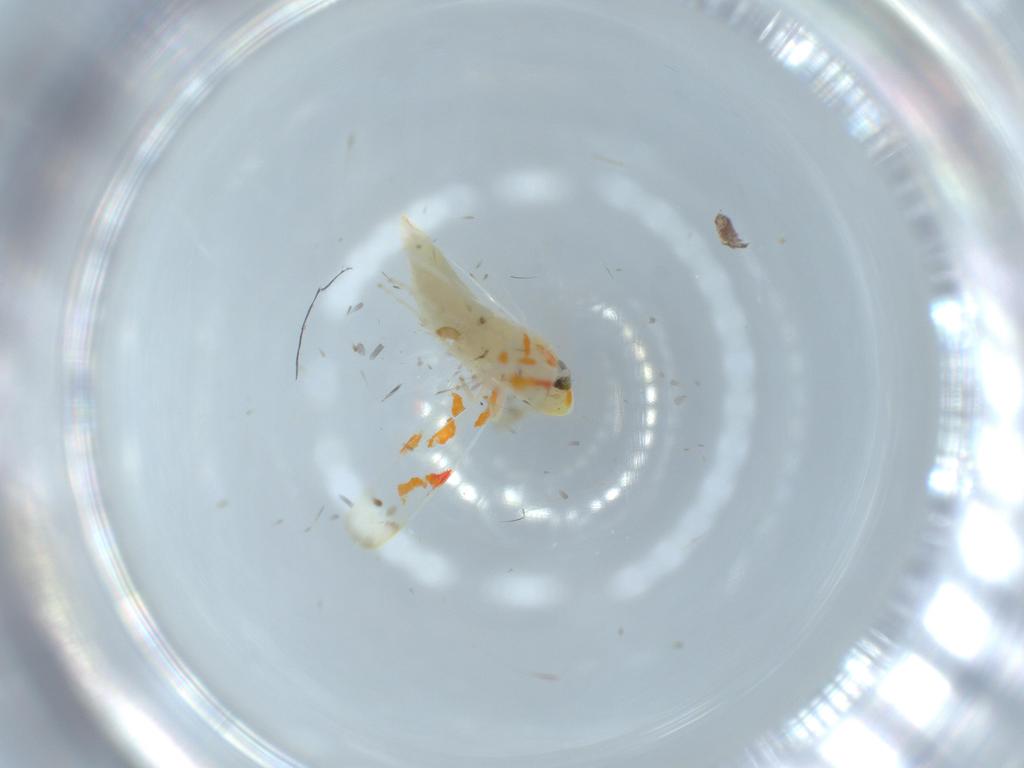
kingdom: Animalia
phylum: Arthropoda
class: Insecta
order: Hemiptera
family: Cicadellidae
